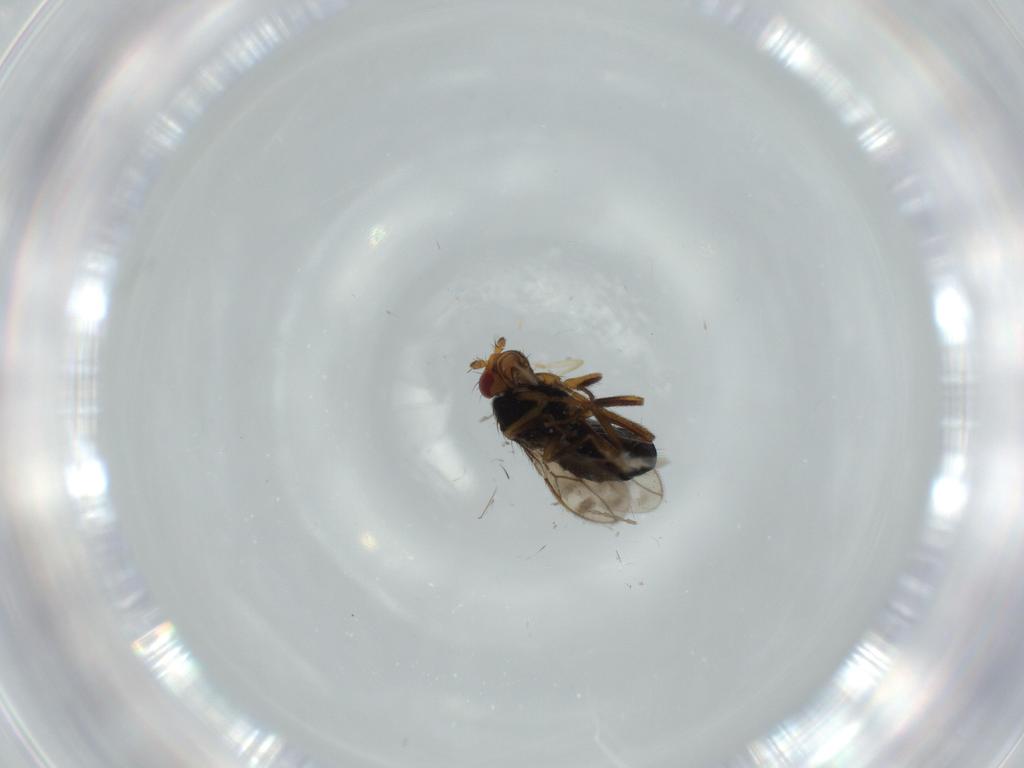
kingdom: Animalia
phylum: Arthropoda
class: Insecta
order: Diptera
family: Sphaeroceridae
